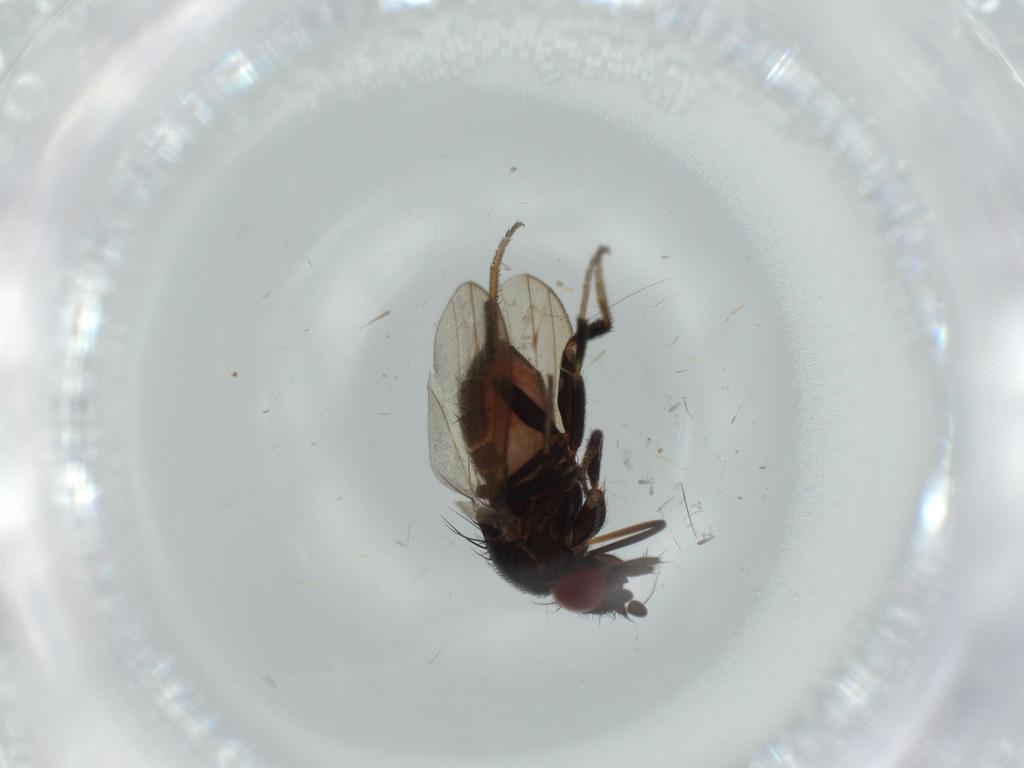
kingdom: Animalia
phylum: Arthropoda
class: Insecta
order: Diptera
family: Milichiidae
